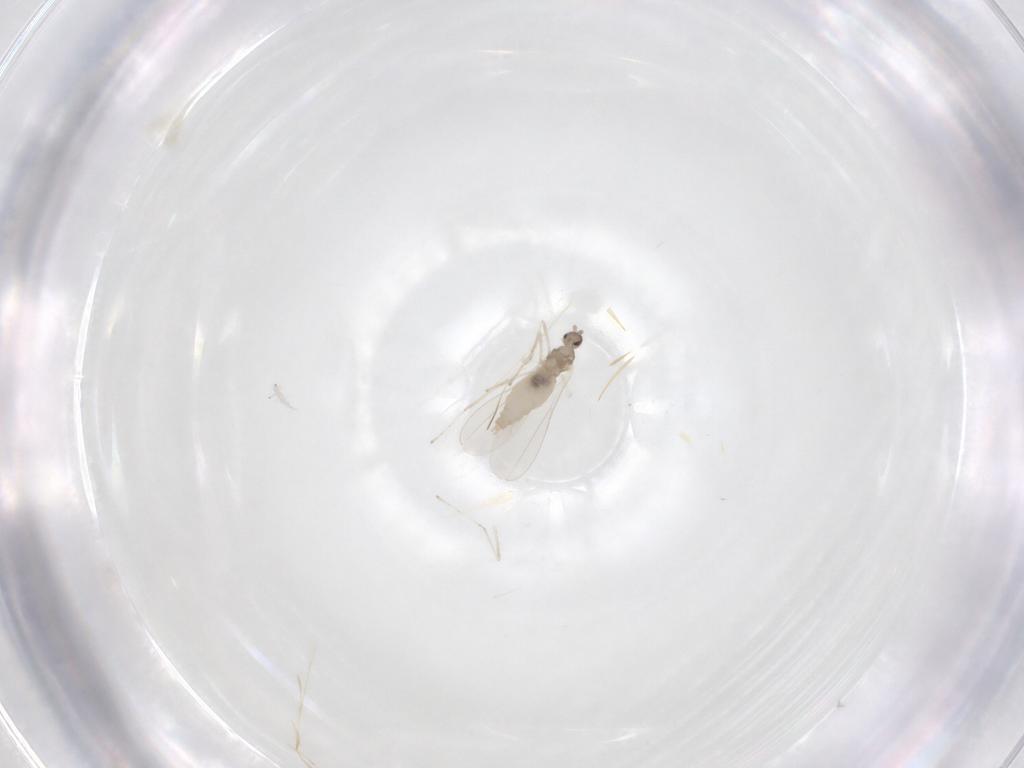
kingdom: Animalia
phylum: Arthropoda
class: Insecta
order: Diptera
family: Cecidomyiidae
